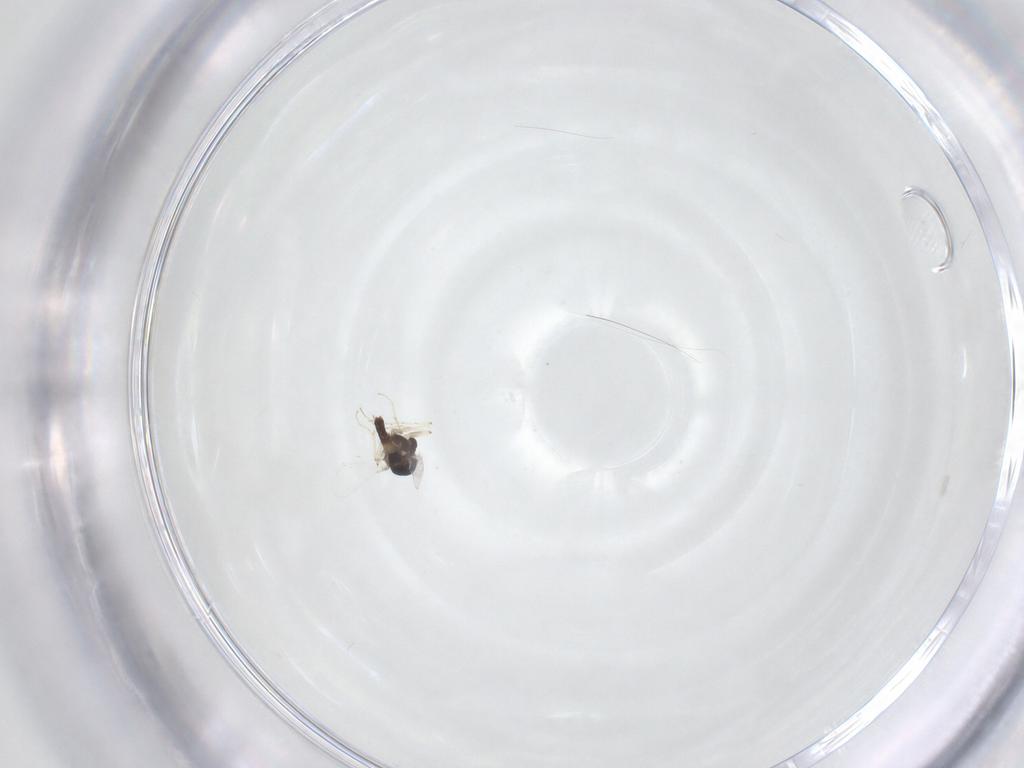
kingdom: Animalia
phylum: Arthropoda
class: Insecta
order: Diptera
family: Chironomidae
